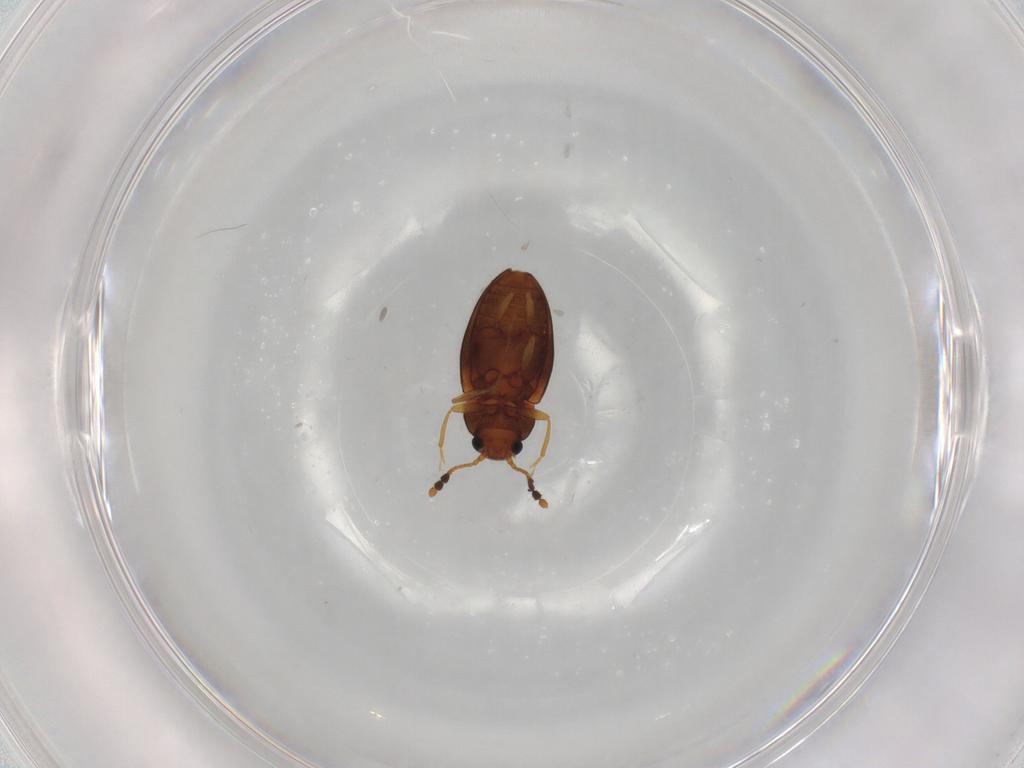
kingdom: Animalia
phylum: Arthropoda
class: Insecta
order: Coleoptera
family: Erotylidae
